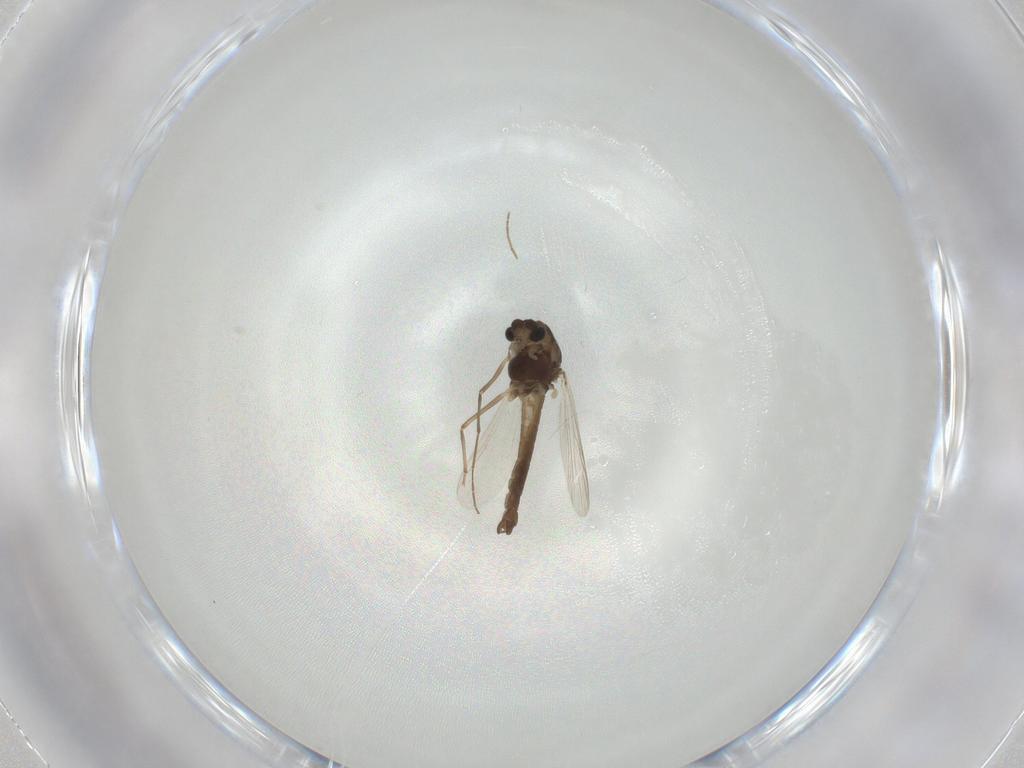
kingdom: Animalia
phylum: Arthropoda
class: Insecta
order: Diptera
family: Chironomidae
